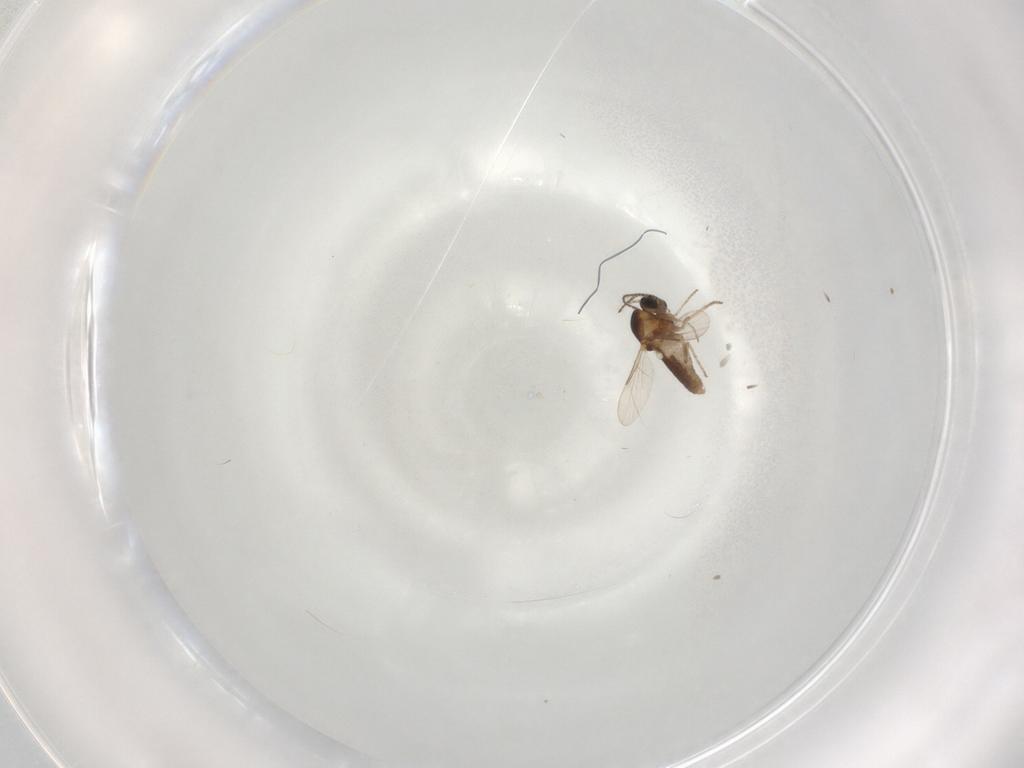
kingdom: Animalia
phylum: Arthropoda
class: Insecta
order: Diptera
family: Ceratopogonidae
